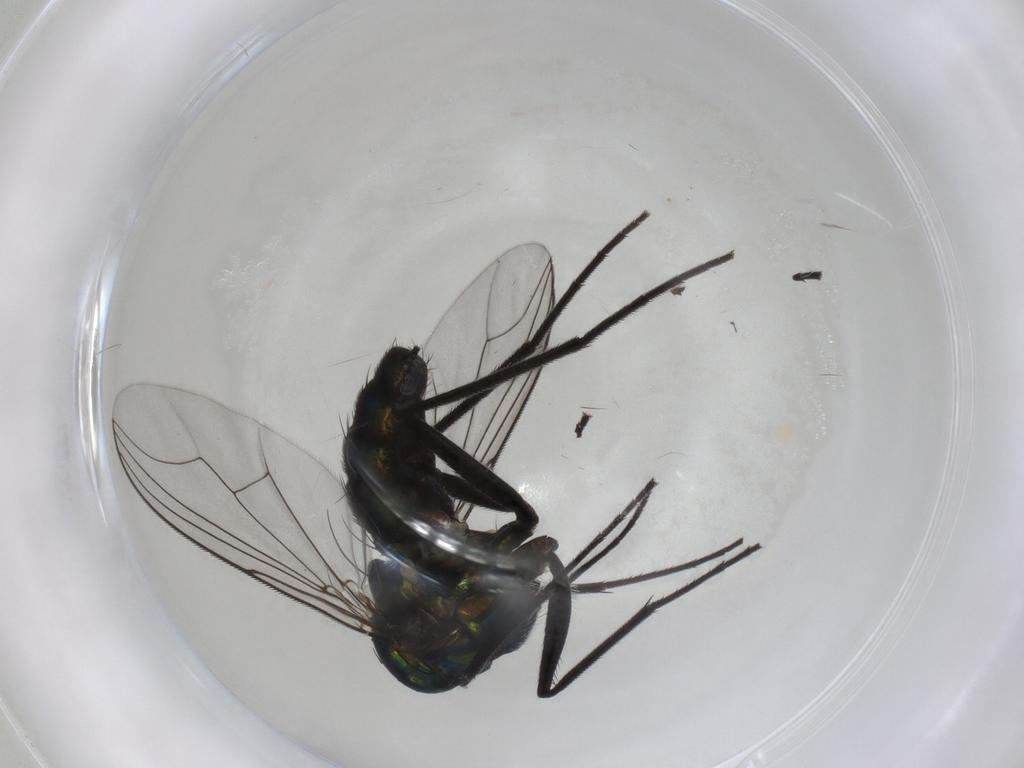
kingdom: Animalia
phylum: Arthropoda
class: Insecta
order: Diptera
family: Dolichopodidae
